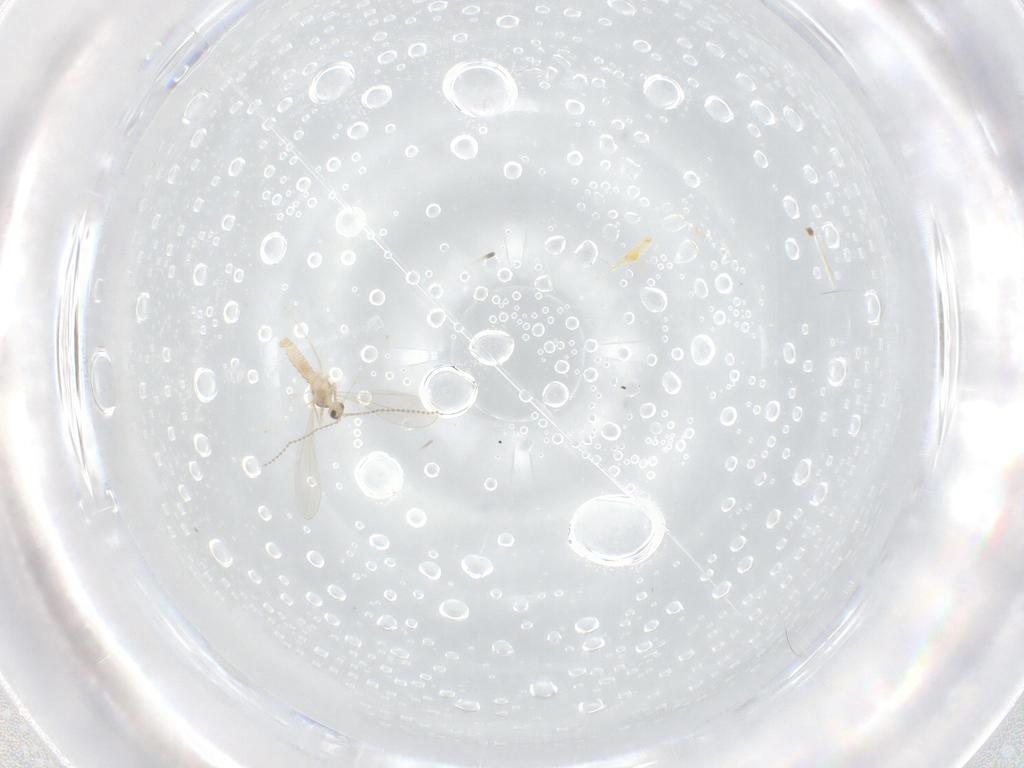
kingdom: Animalia
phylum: Arthropoda
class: Insecta
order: Diptera
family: Cecidomyiidae
